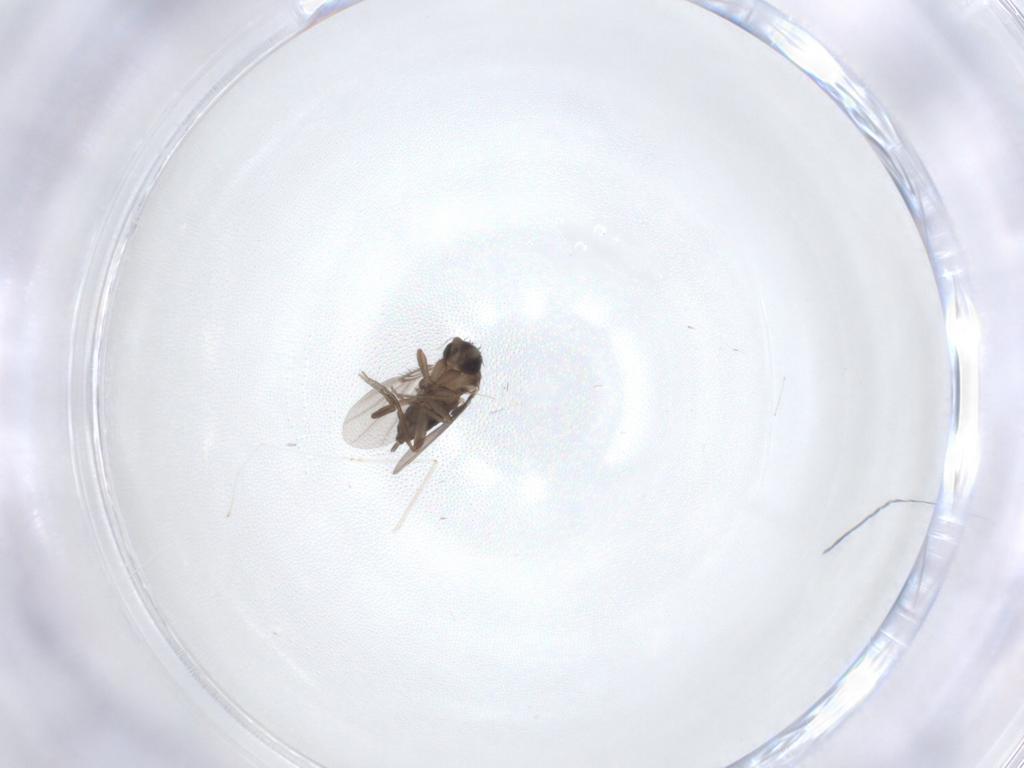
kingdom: Animalia
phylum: Arthropoda
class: Insecta
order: Diptera
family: Phoridae
